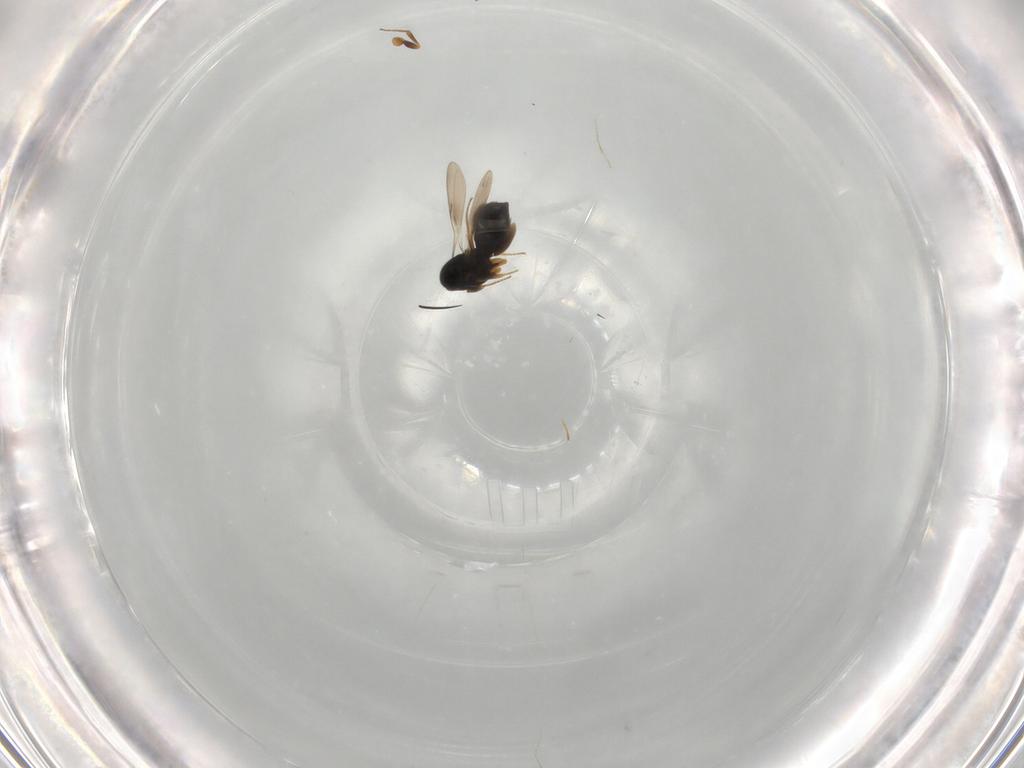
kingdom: Animalia
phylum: Arthropoda
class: Insecta
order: Hymenoptera
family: Scelionidae
